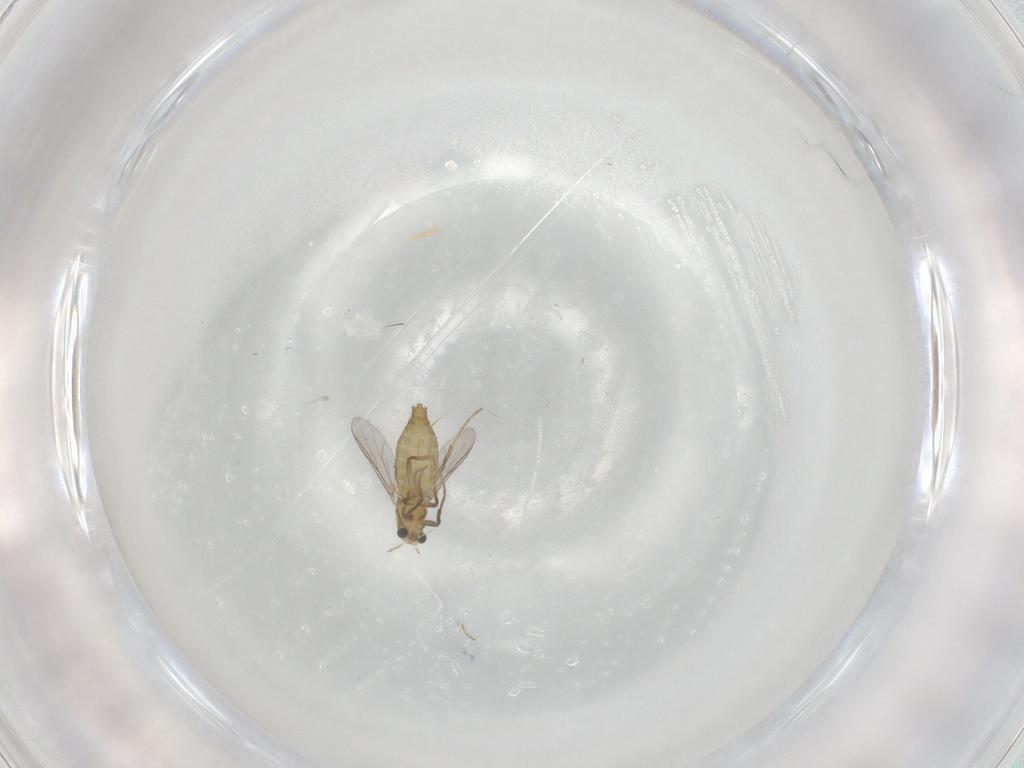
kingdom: Animalia
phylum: Arthropoda
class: Insecta
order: Diptera
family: Chironomidae
